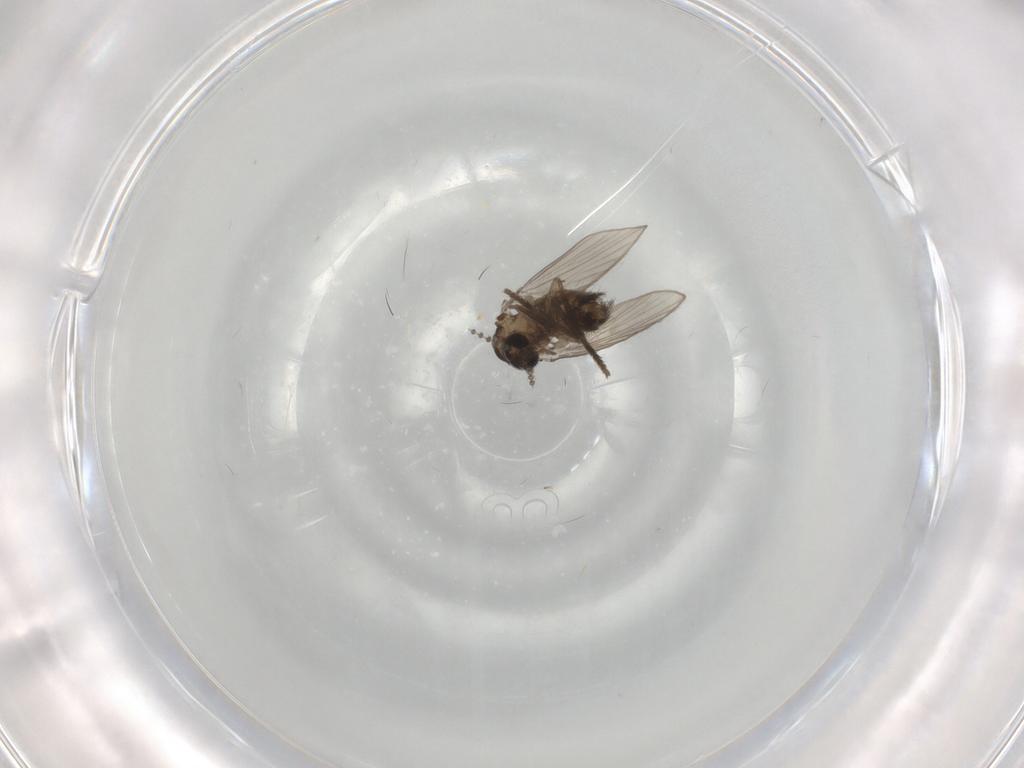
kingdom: Animalia
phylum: Arthropoda
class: Insecta
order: Diptera
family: Psychodidae
